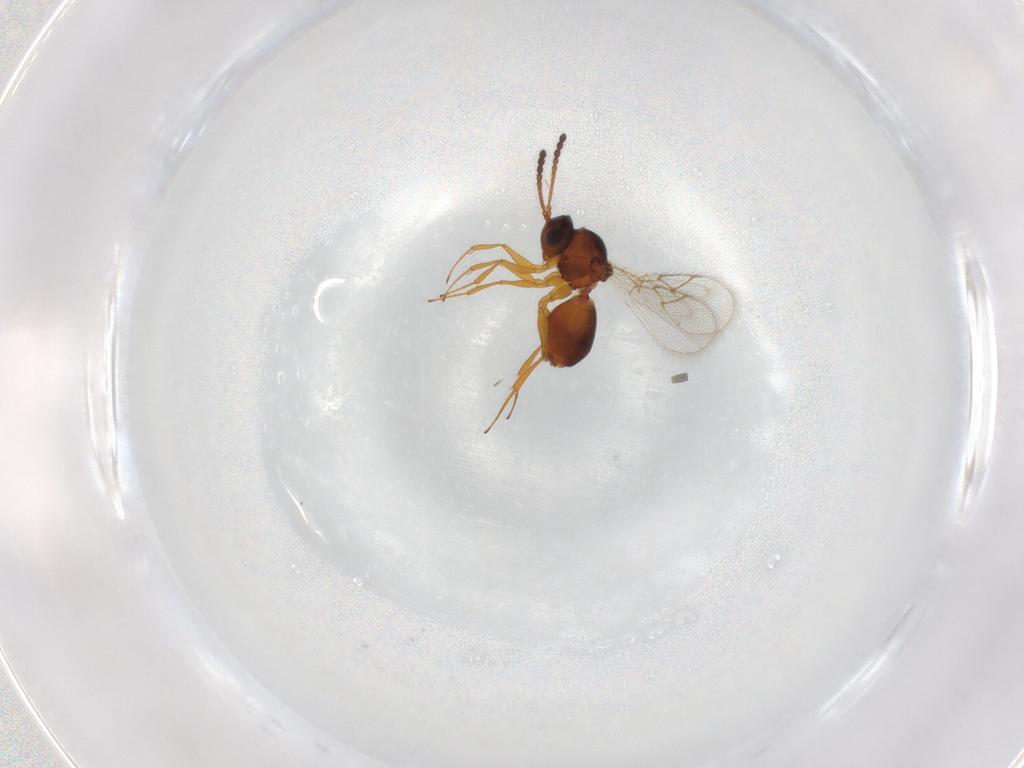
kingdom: Animalia
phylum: Arthropoda
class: Insecta
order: Hymenoptera
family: Figitidae
